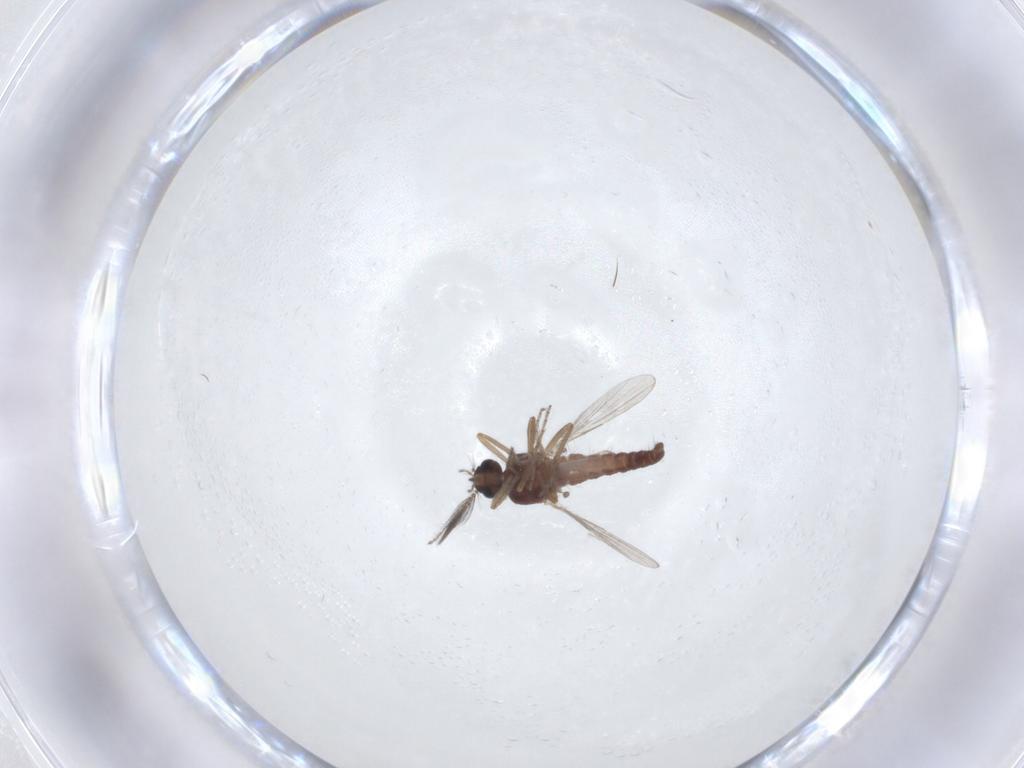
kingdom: Animalia
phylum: Arthropoda
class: Insecta
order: Diptera
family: Ceratopogonidae
